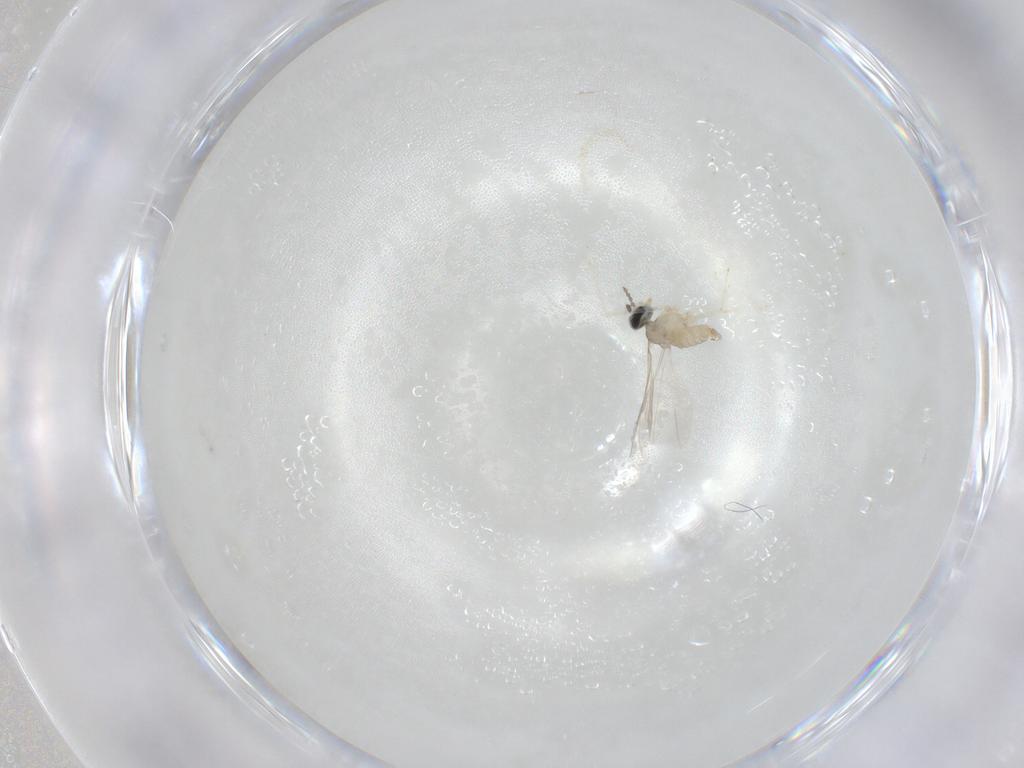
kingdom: Animalia
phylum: Arthropoda
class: Insecta
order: Diptera
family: Cecidomyiidae
